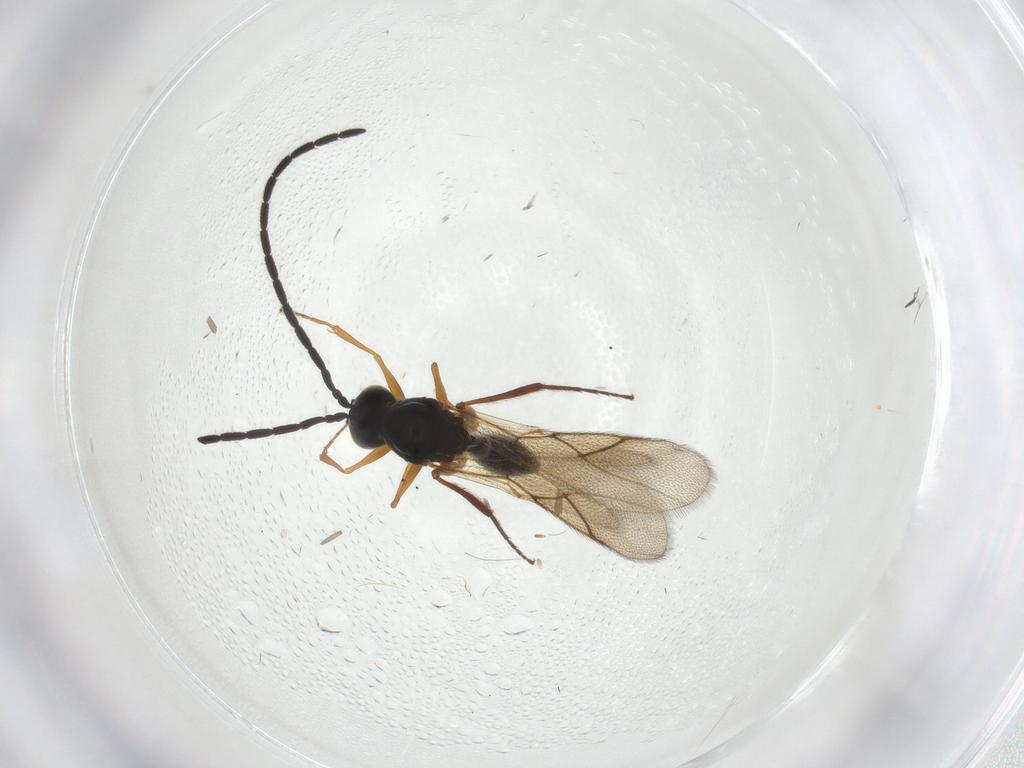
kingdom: Animalia
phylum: Arthropoda
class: Insecta
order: Hymenoptera
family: Figitidae
